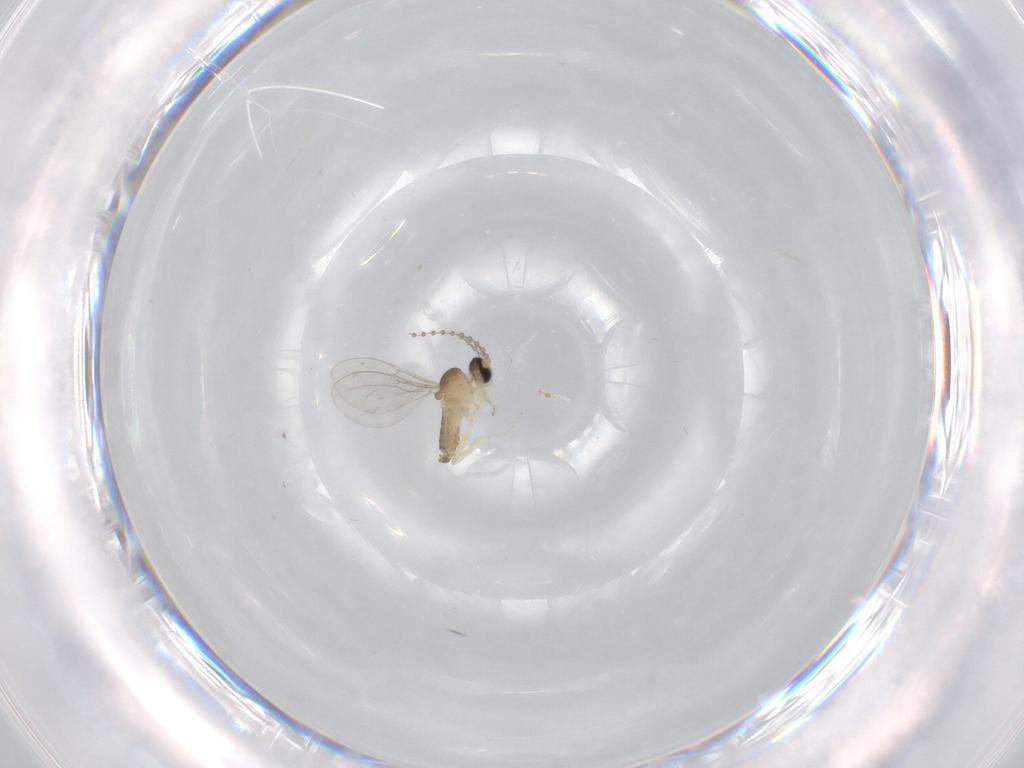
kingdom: Animalia
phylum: Arthropoda
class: Insecta
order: Diptera
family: Cecidomyiidae
